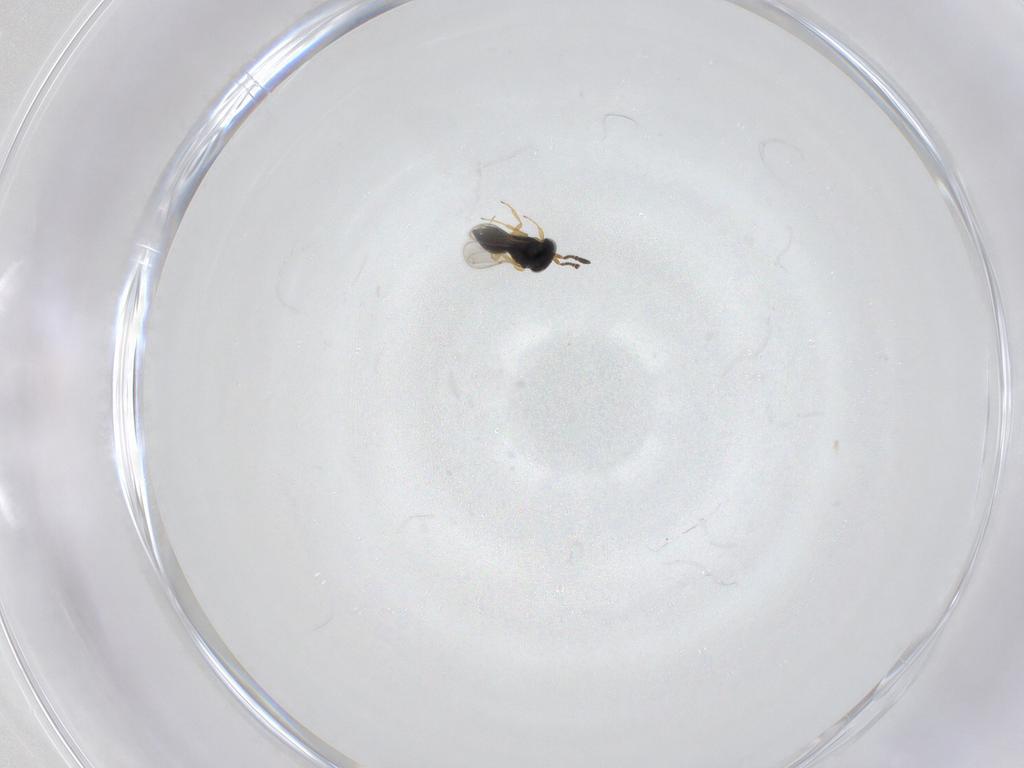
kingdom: Animalia
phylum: Arthropoda
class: Insecta
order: Hymenoptera
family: Scelionidae
